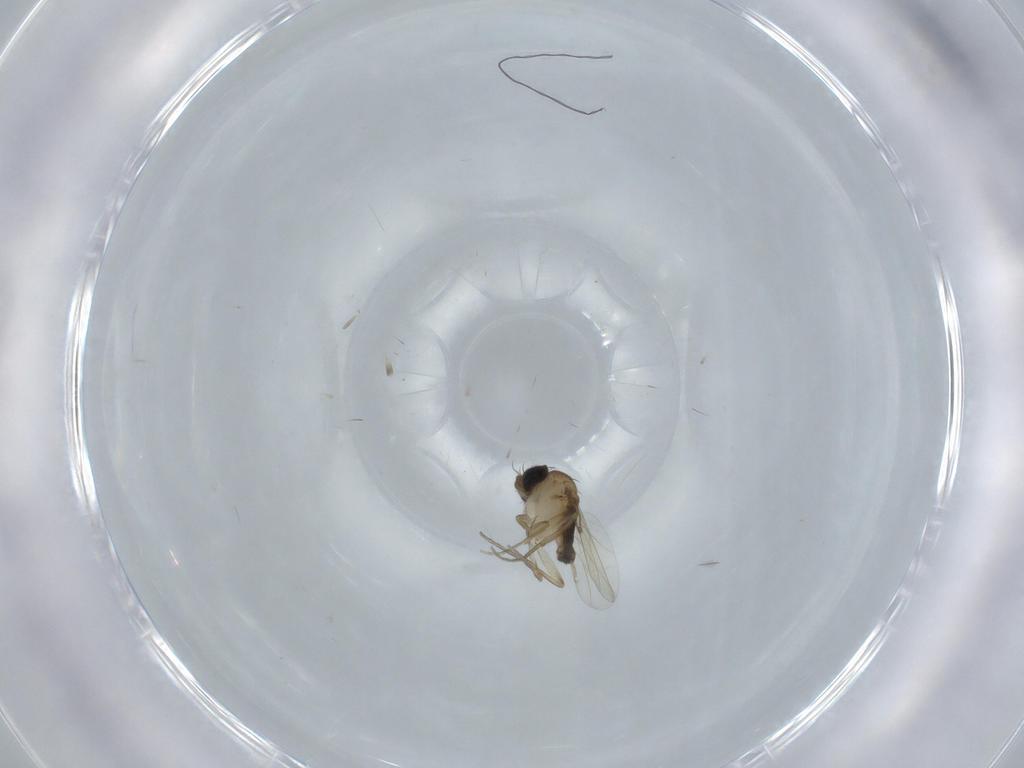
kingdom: Animalia
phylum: Arthropoda
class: Insecta
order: Diptera
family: Phoridae
